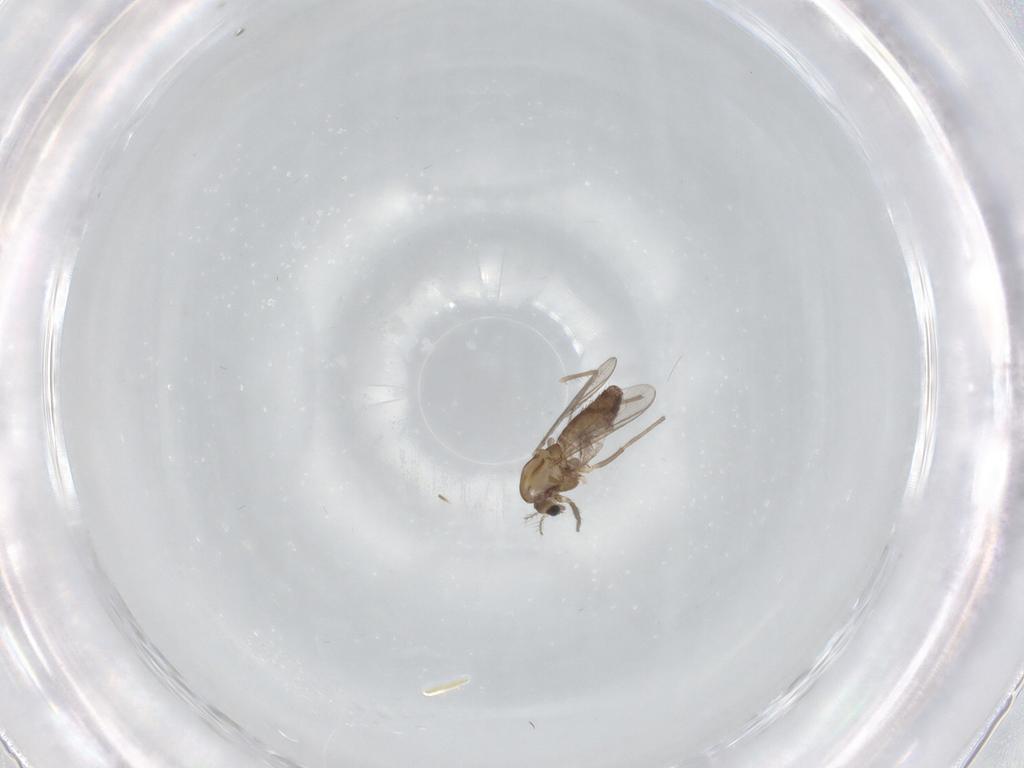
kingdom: Animalia
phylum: Arthropoda
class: Insecta
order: Diptera
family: Chironomidae
